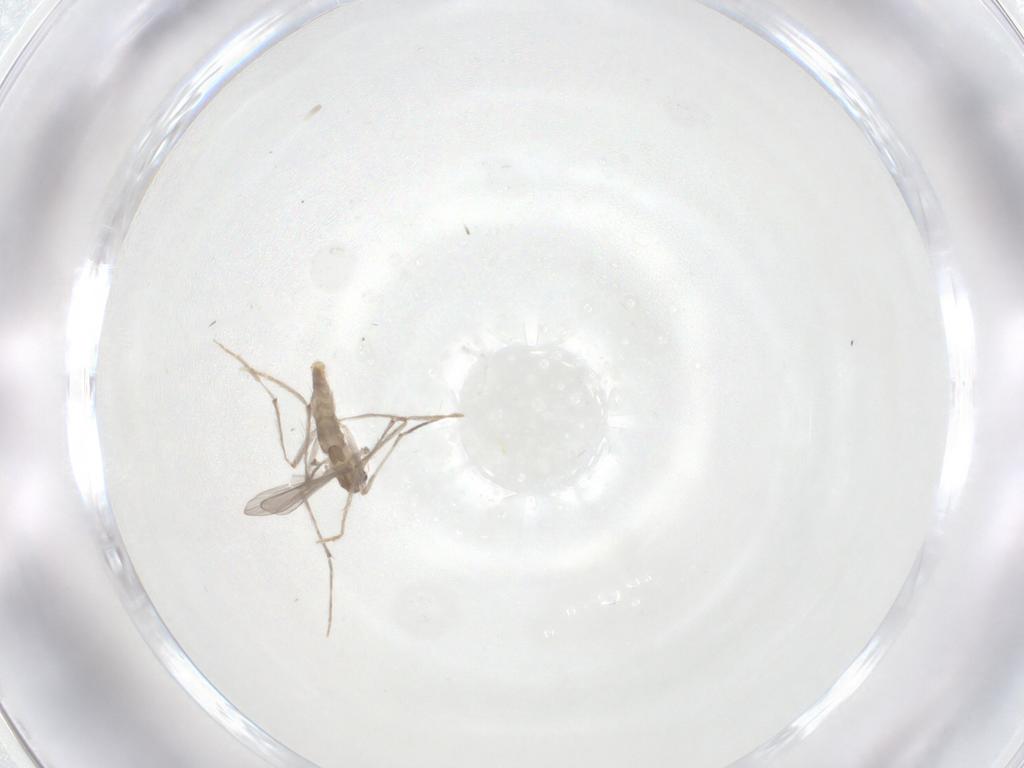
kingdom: Animalia
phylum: Arthropoda
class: Insecta
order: Diptera
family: Chironomidae
